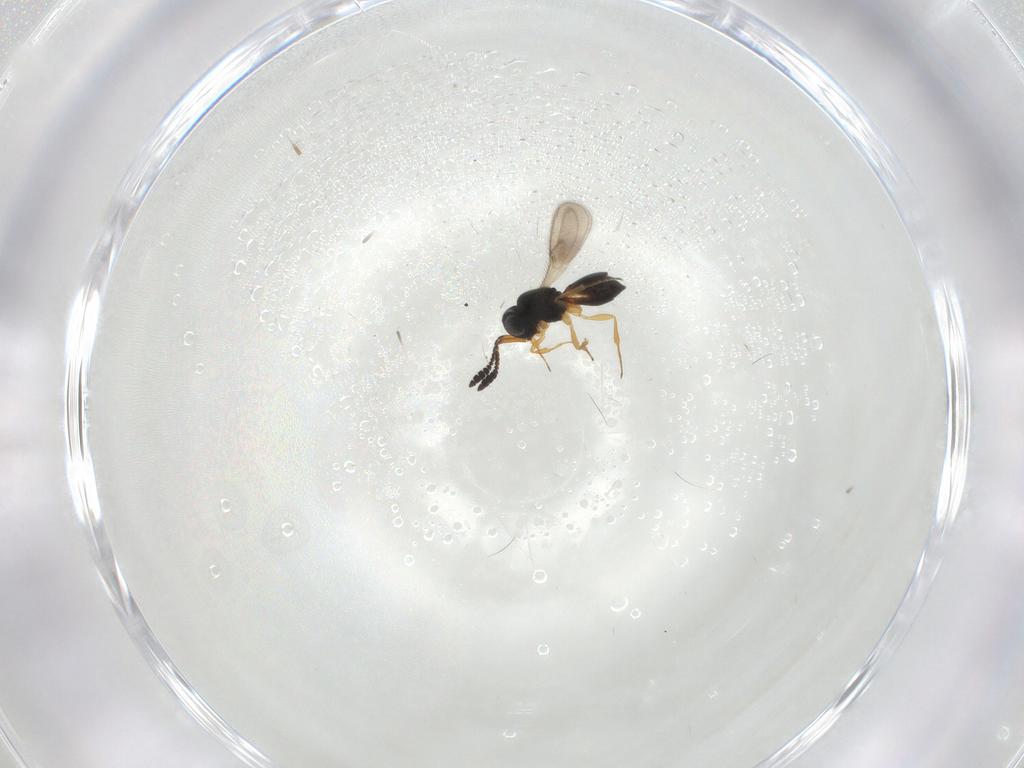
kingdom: Animalia
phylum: Arthropoda
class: Insecta
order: Hymenoptera
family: Scelionidae
